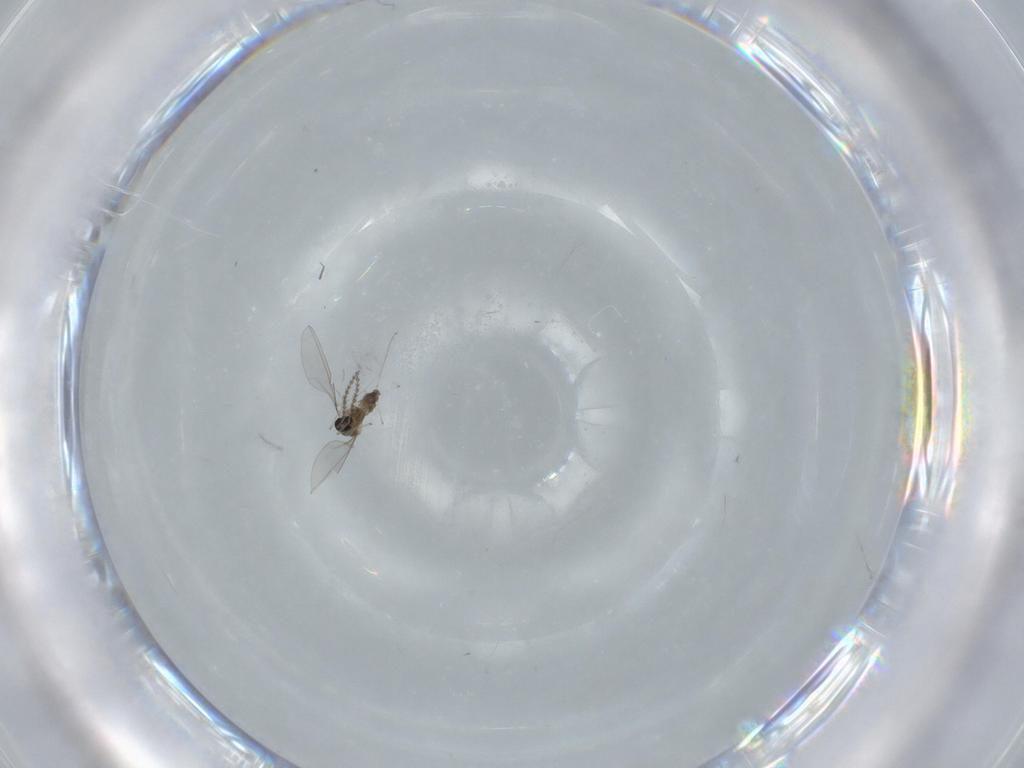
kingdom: Animalia
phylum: Arthropoda
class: Insecta
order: Diptera
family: Cecidomyiidae
